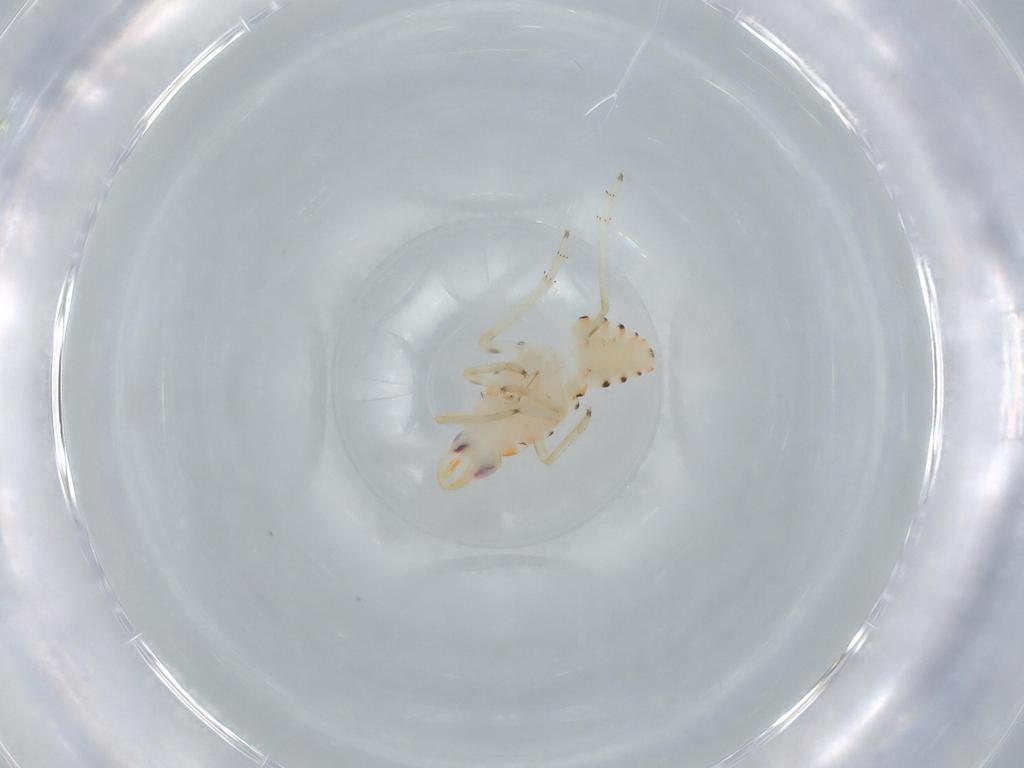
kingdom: Animalia
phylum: Arthropoda
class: Insecta
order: Hemiptera
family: Tropiduchidae
